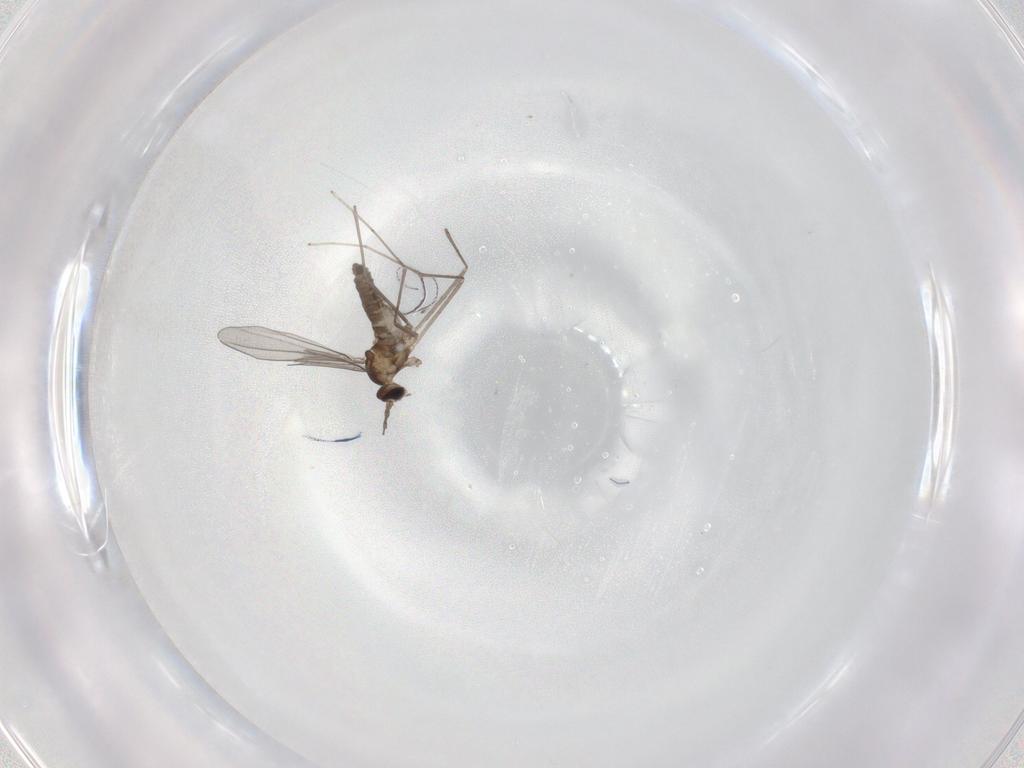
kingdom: Animalia
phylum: Arthropoda
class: Insecta
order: Diptera
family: Cecidomyiidae
